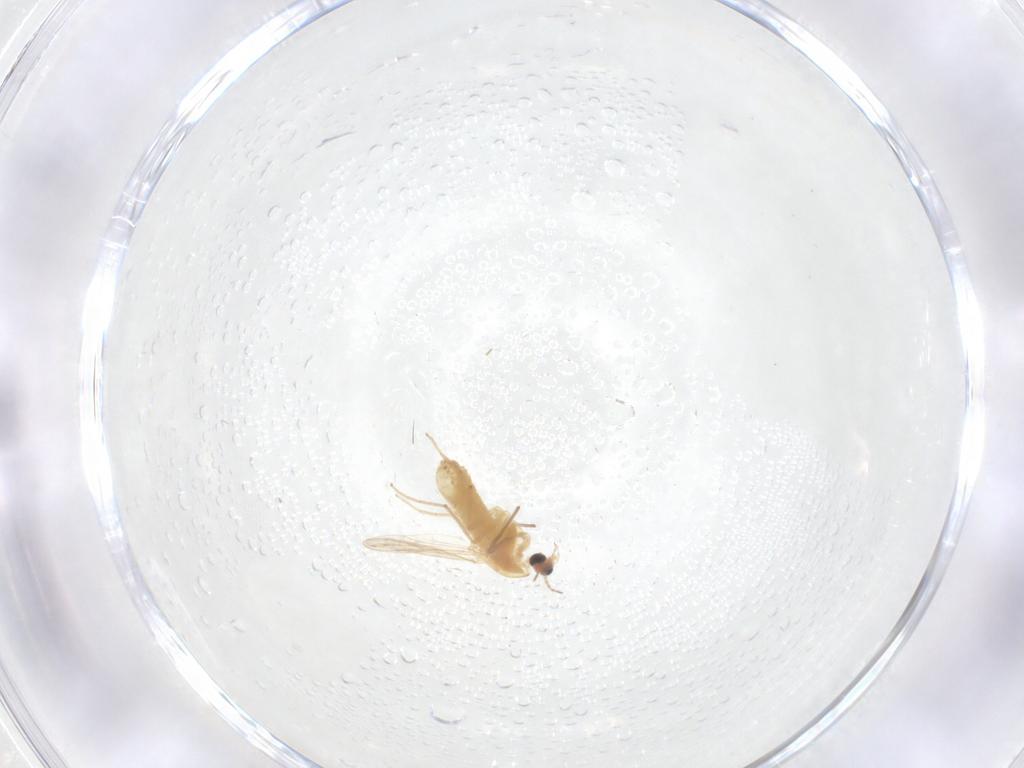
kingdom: Animalia
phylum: Arthropoda
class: Insecta
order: Diptera
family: Chironomidae
